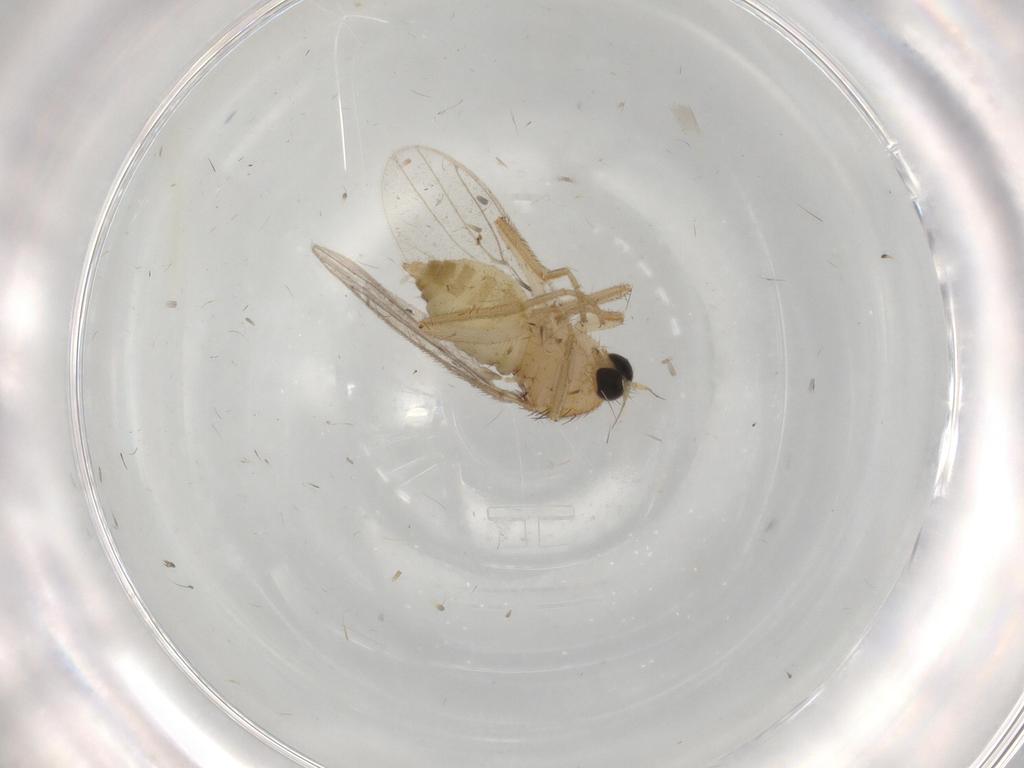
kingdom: Animalia
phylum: Arthropoda
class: Insecta
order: Diptera
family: Hybotidae
